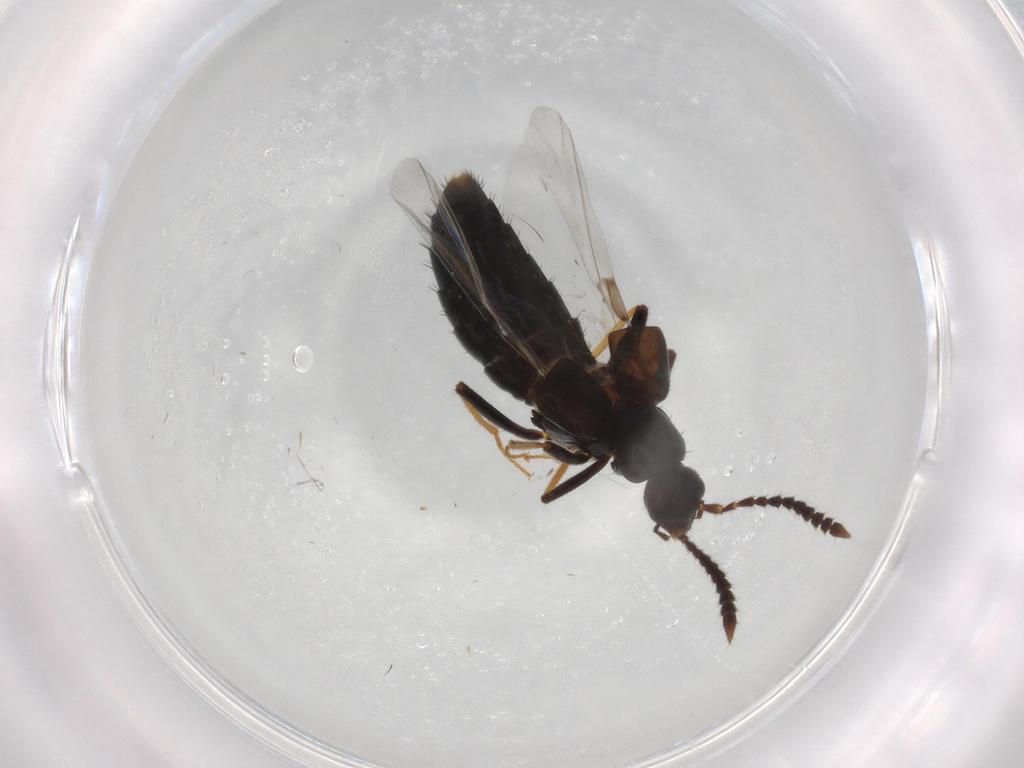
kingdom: Animalia
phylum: Arthropoda
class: Insecta
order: Coleoptera
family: Staphylinidae
